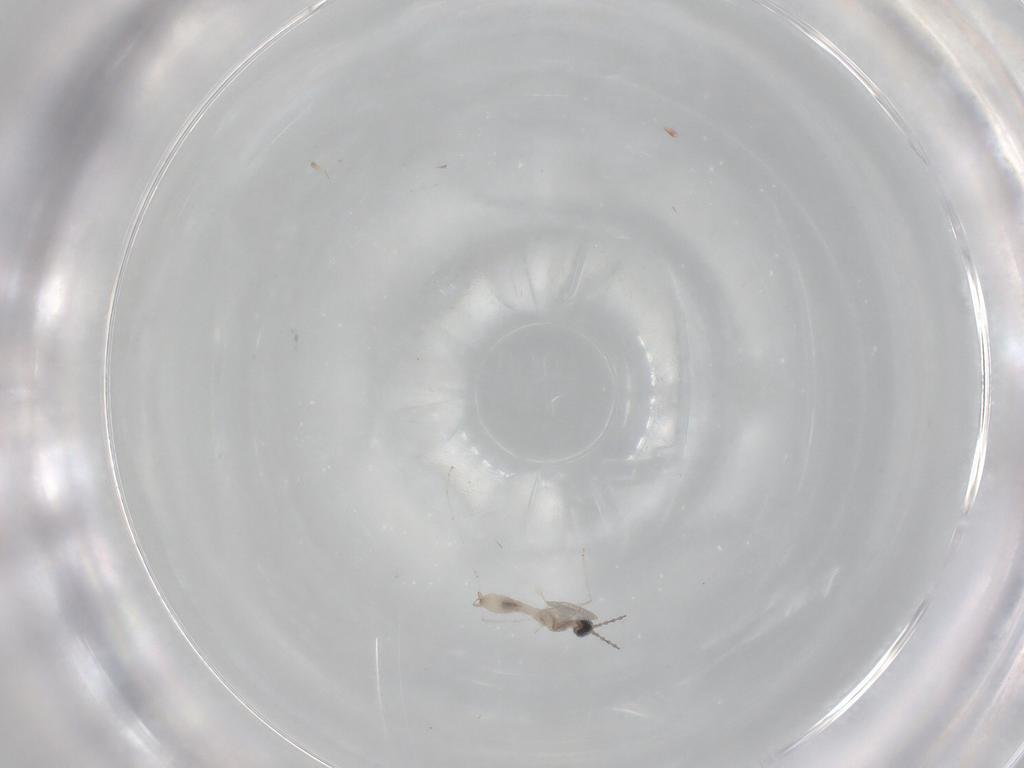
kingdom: Animalia
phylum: Arthropoda
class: Insecta
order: Diptera
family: Cecidomyiidae
